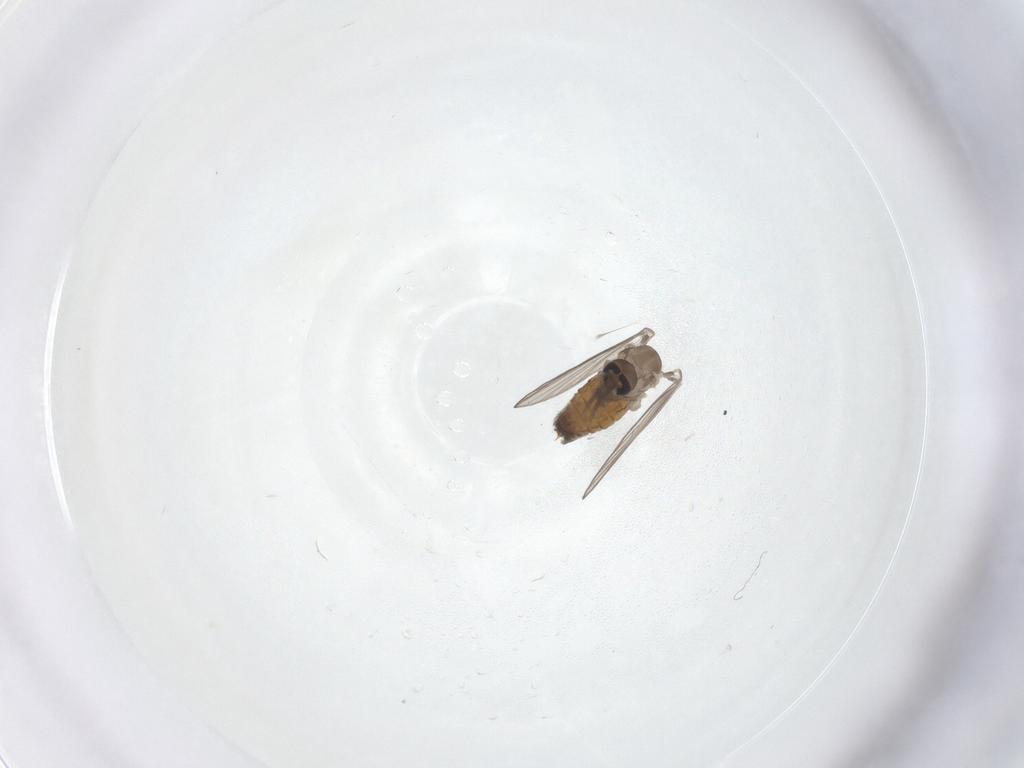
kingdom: Animalia
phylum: Arthropoda
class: Insecta
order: Diptera
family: Psychodidae
